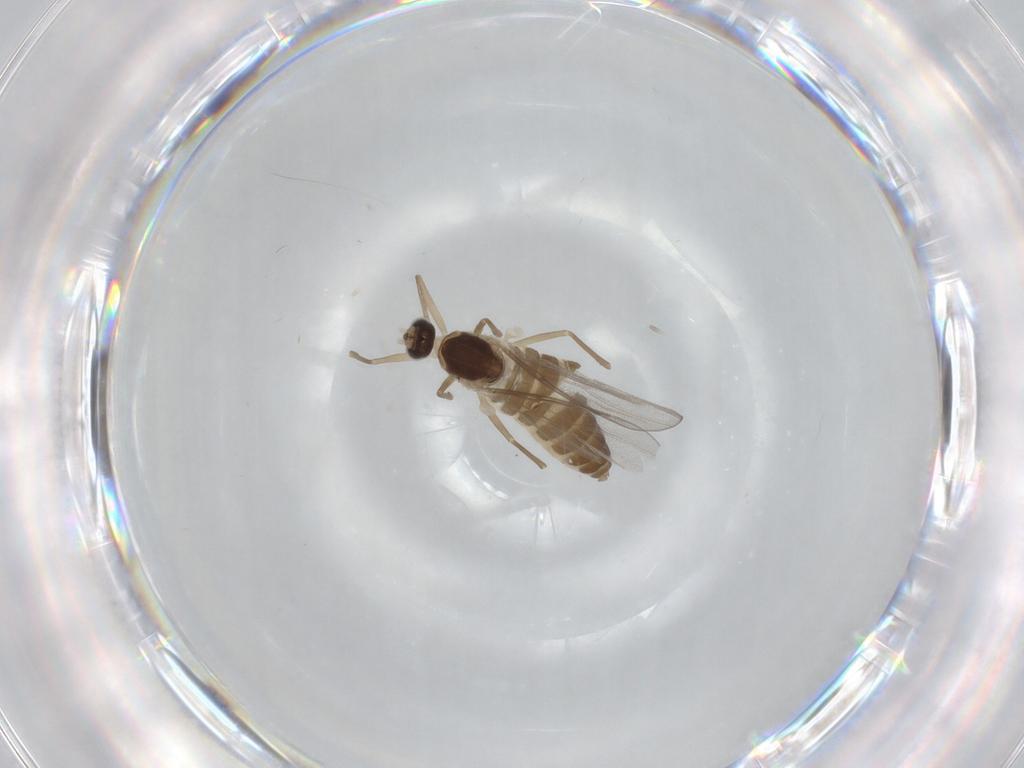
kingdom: Animalia
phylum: Arthropoda
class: Insecta
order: Diptera
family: Cecidomyiidae
